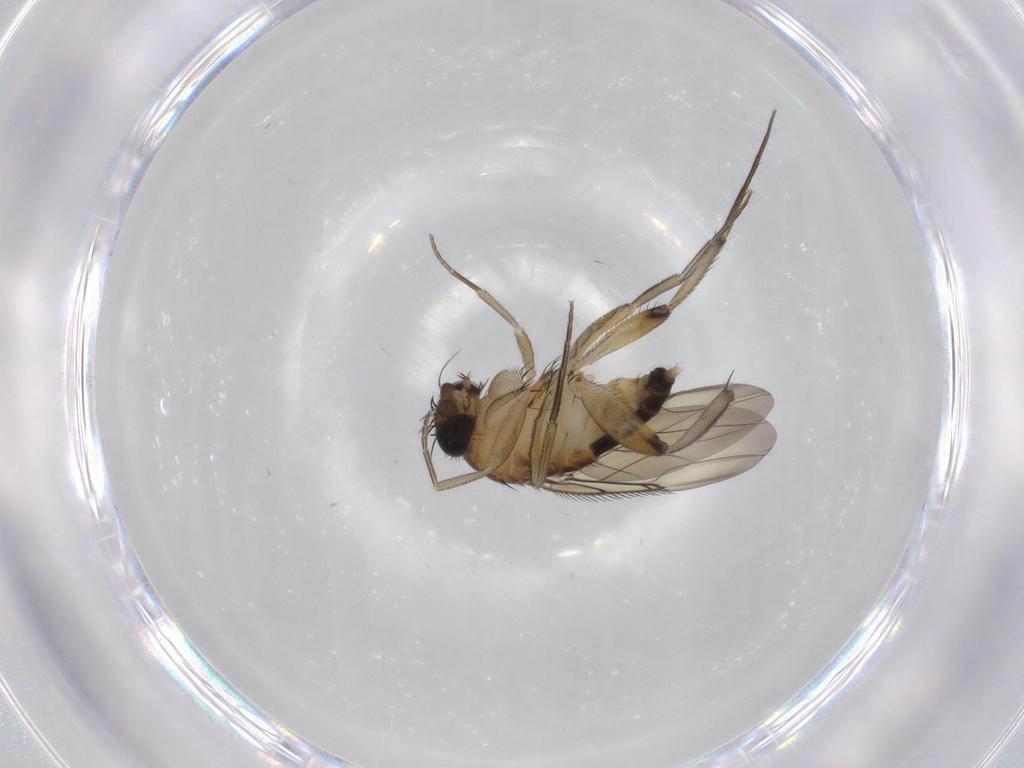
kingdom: Animalia
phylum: Arthropoda
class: Insecta
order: Diptera
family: Phoridae
